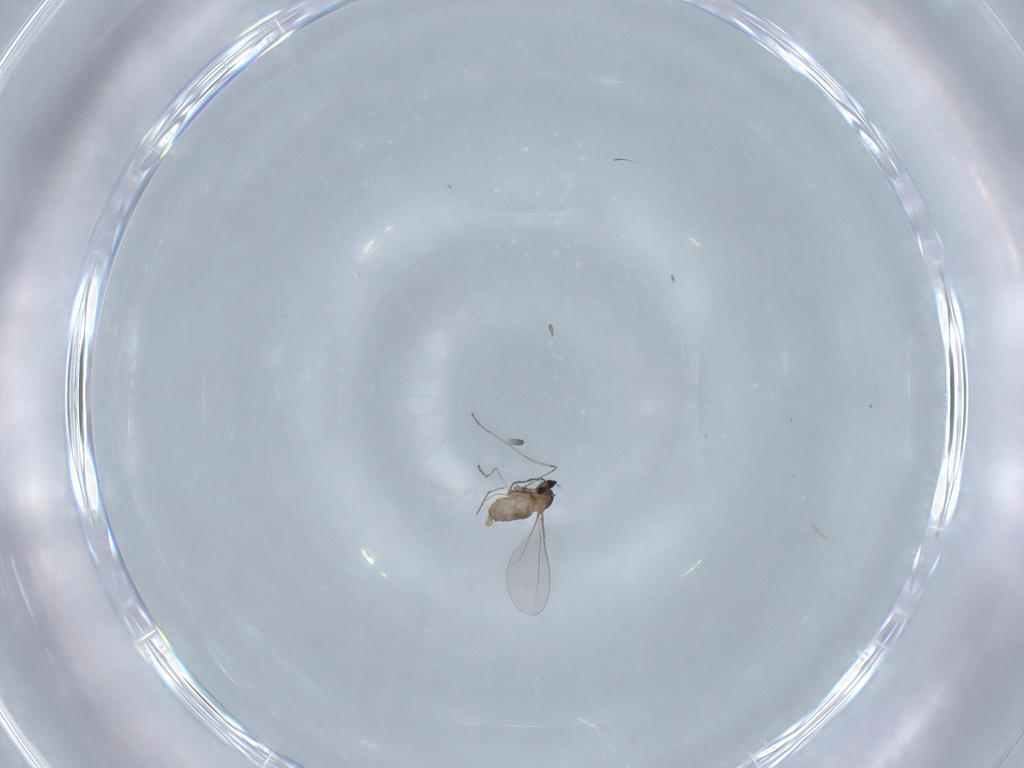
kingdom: Animalia
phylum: Arthropoda
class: Insecta
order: Diptera
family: Cecidomyiidae
